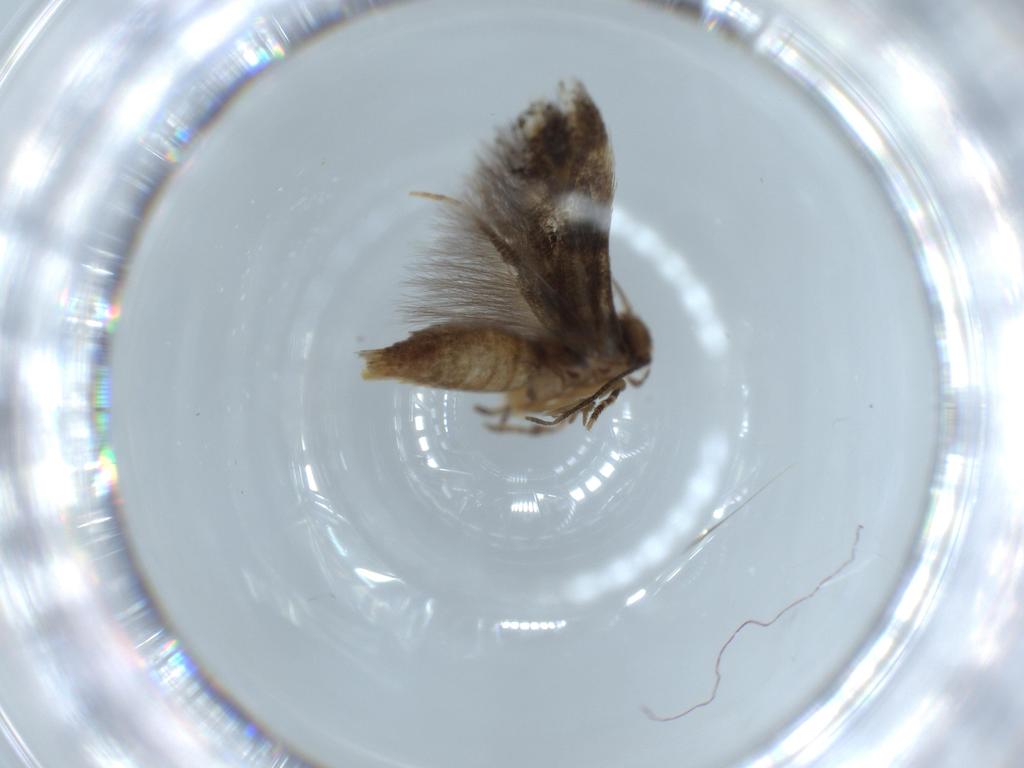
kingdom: Animalia
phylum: Arthropoda
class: Insecta
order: Lepidoptera
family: Elachistidae
